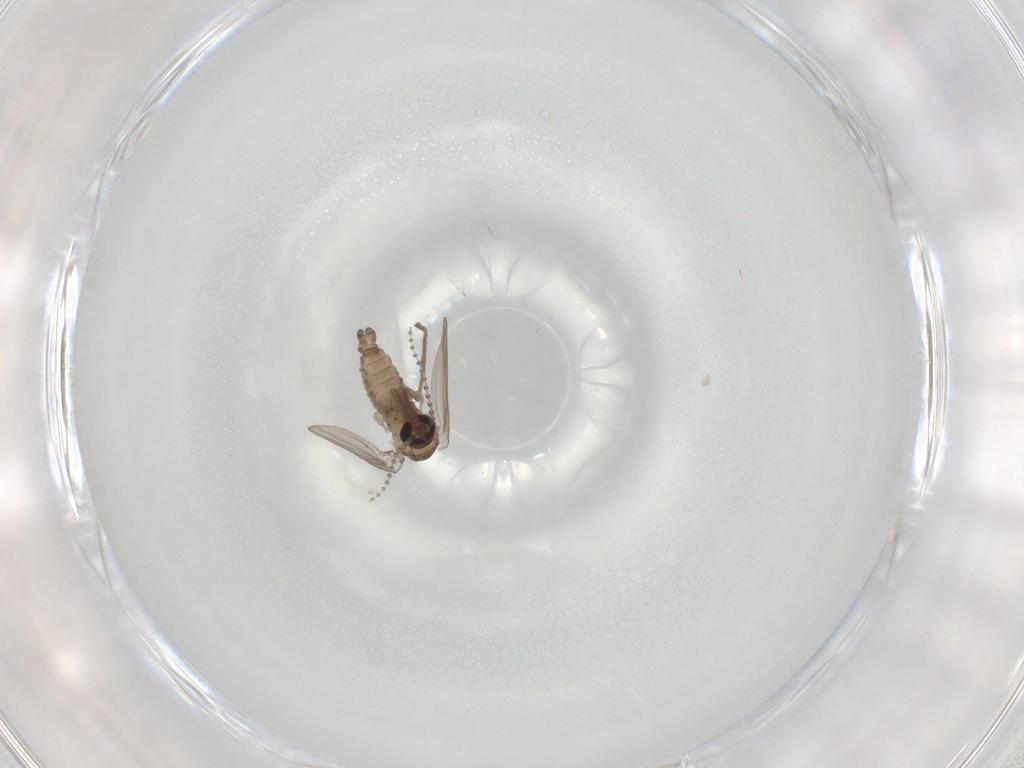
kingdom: Animalia
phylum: Arthropoda
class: Insecta
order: Diptera
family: Psychodidae
